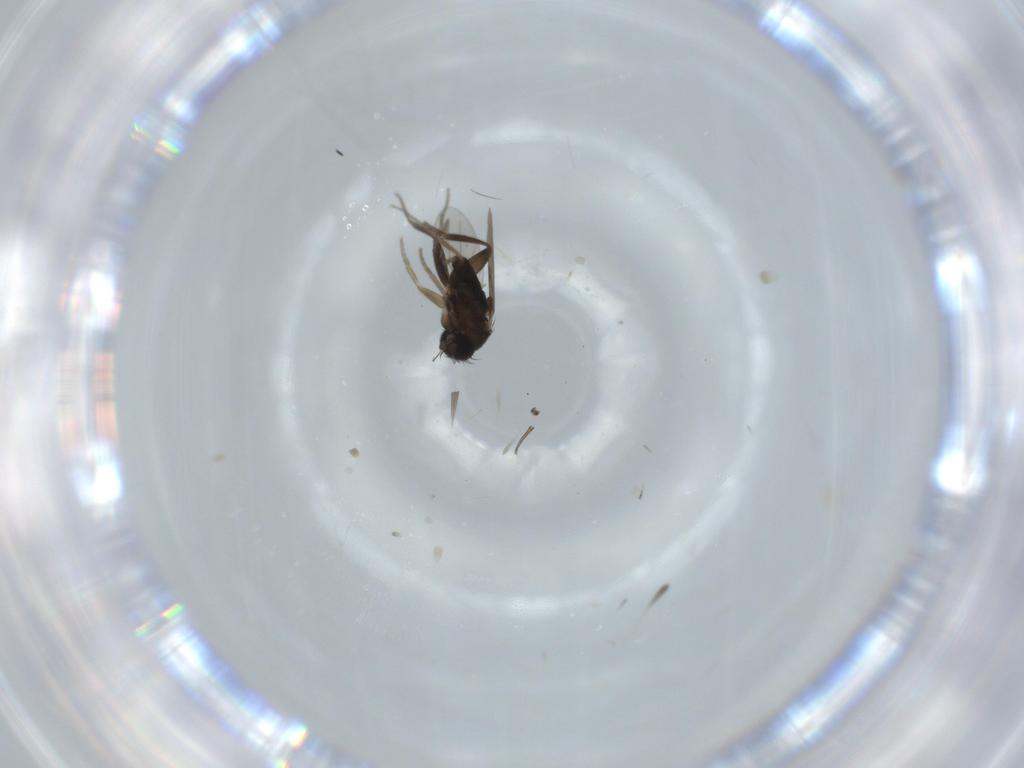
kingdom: Animalia
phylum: Arthropoda
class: Insecta
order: Diptera
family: Phoridae
